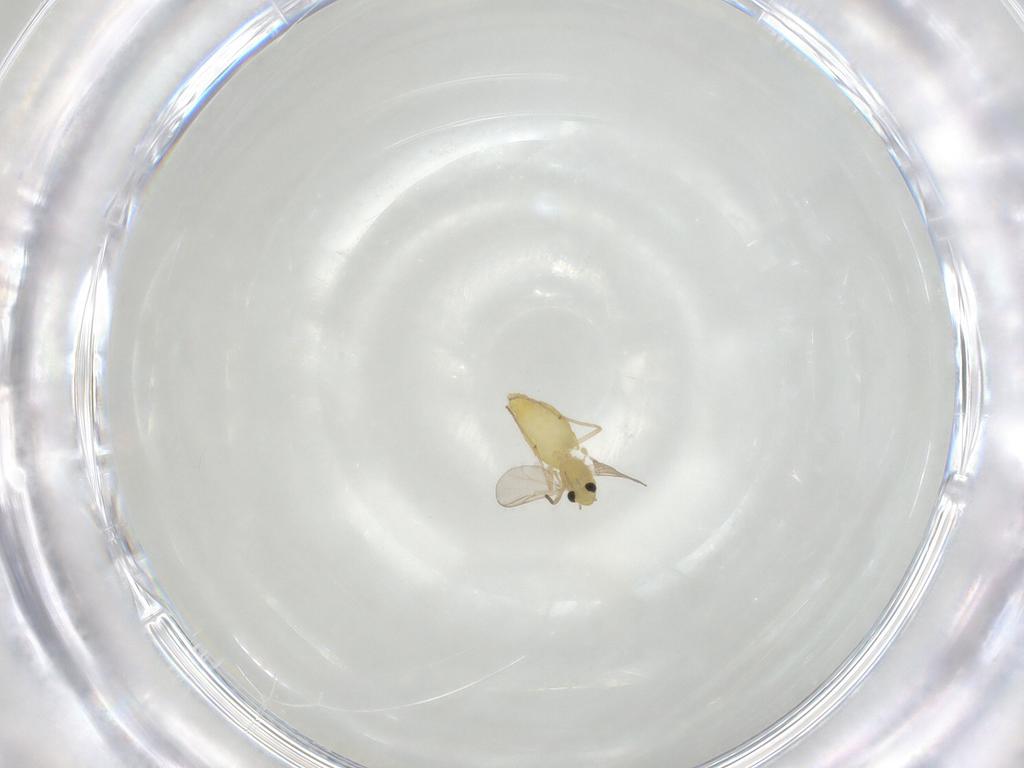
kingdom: Animalia
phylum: Arthropoda
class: Insecta
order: Diptera
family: Chironomidae
